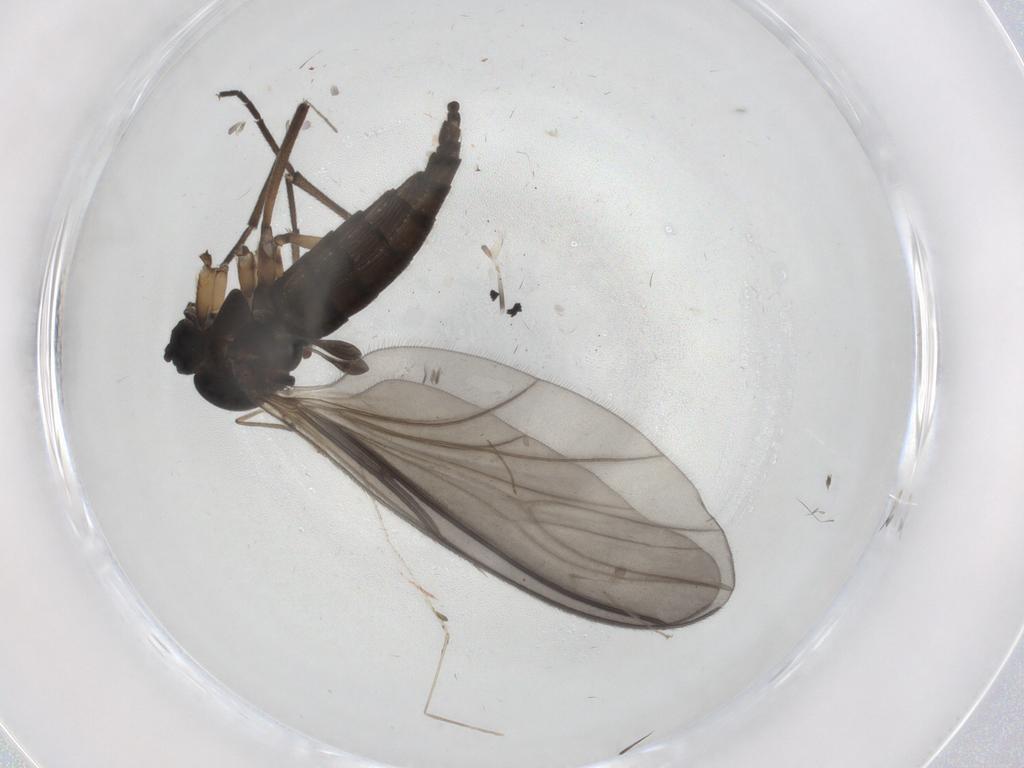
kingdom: Animalia
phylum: Arthropoda
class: Insecta
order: Diptera
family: Sciaridae
